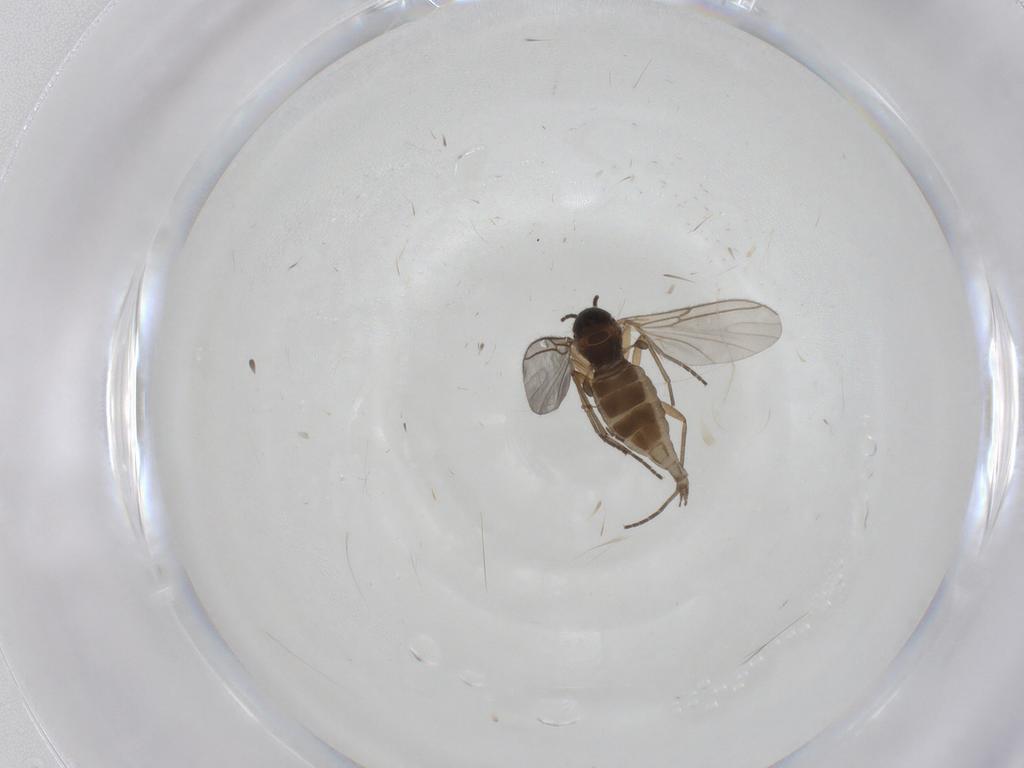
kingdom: Animalia
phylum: Arthropoda
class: Insecta
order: Diptera
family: Sciaridae
